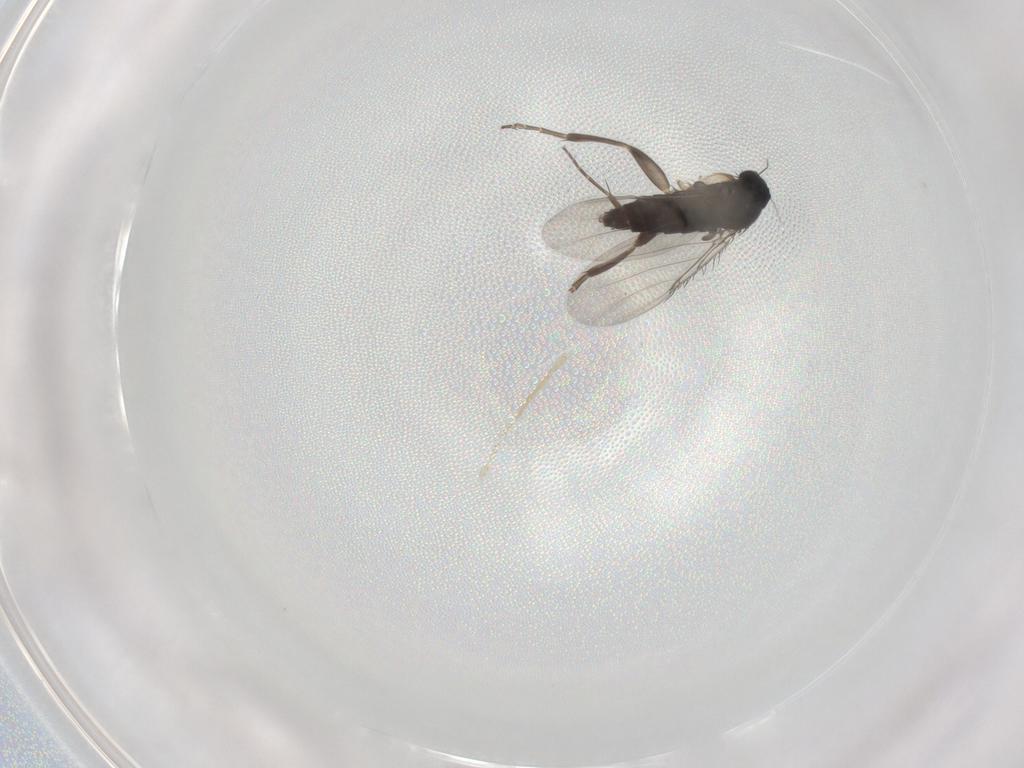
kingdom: Animalia
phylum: Arthropoda
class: Insecta
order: Diptera
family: Phoridae
